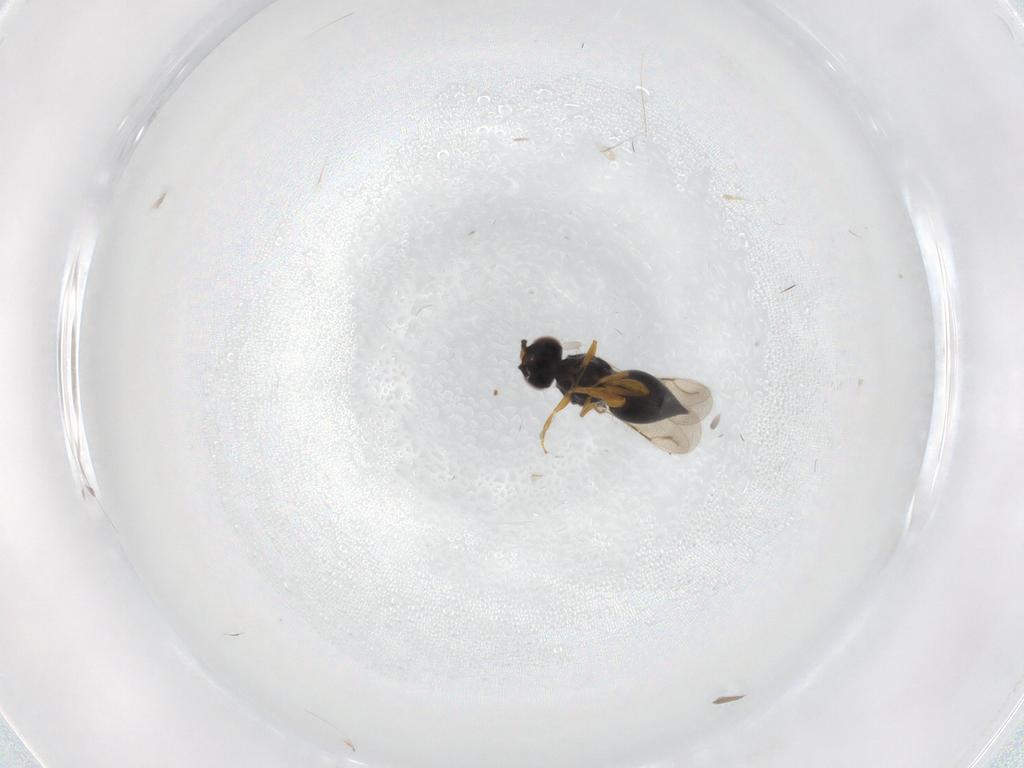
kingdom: Animalia
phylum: Arthropoda
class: Insecta
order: Hymenoptera
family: Ceraphronidae
